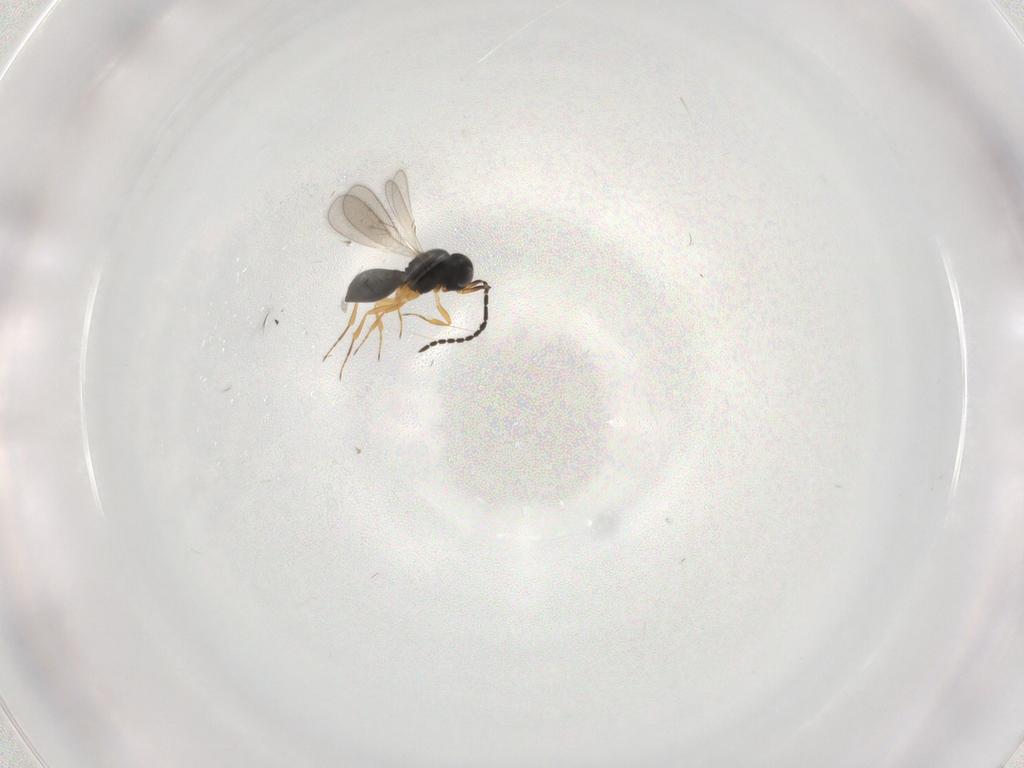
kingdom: Animalia
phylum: Arthropoda
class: Insecta
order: Hymenoptera
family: Scelionidae
